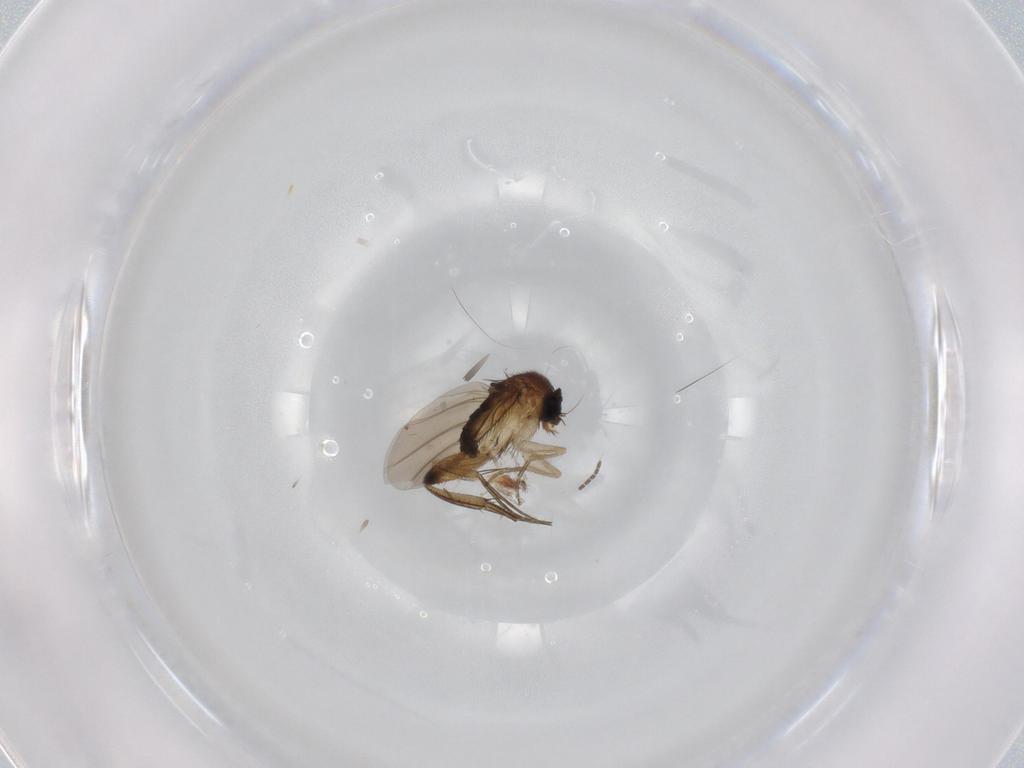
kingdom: Animalia
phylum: Arthropoda
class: Insecta
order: Diptera
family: Phoridae
